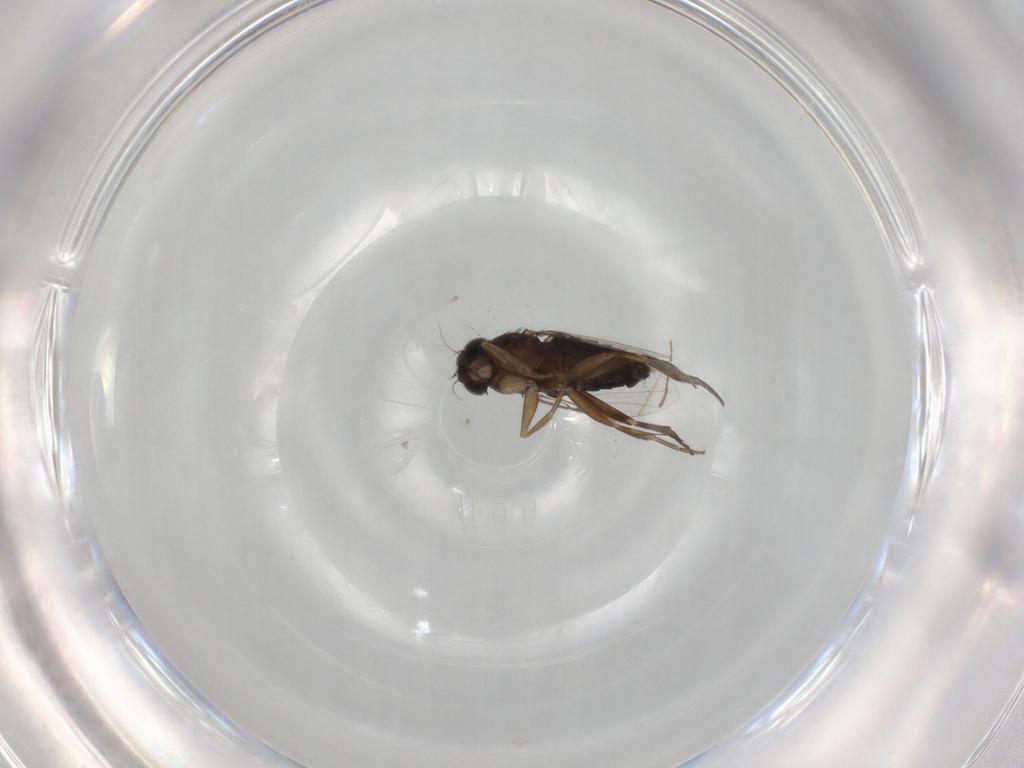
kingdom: Animalia
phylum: Arthropoda
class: Insecta
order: Diptera
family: Phoridae
